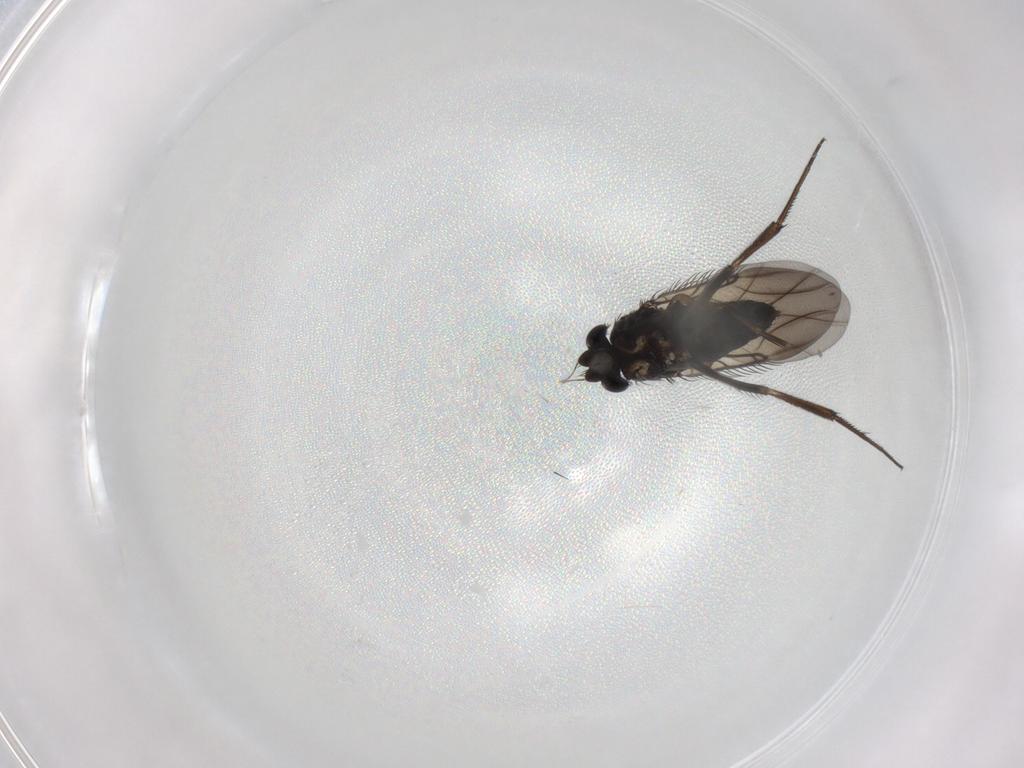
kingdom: Animalia
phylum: Arthropoda
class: Insecta
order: Diptera
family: Phoridae
